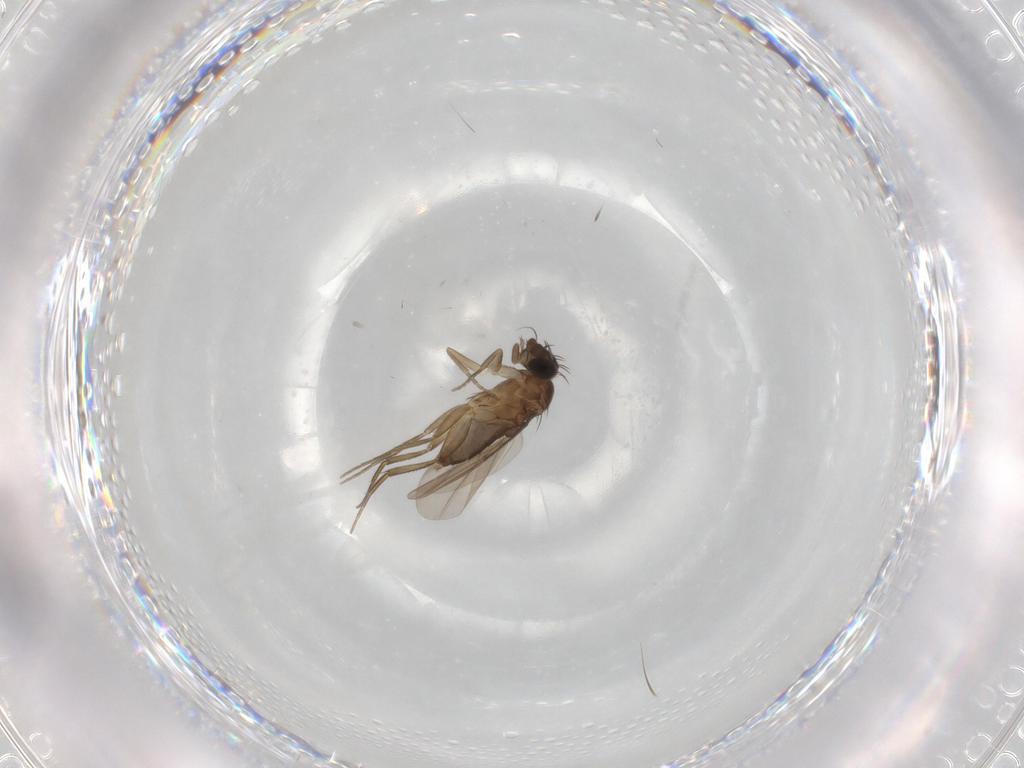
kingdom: Animalia
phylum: Arthropoda
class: Insecta
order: Diptera
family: Phoridae
